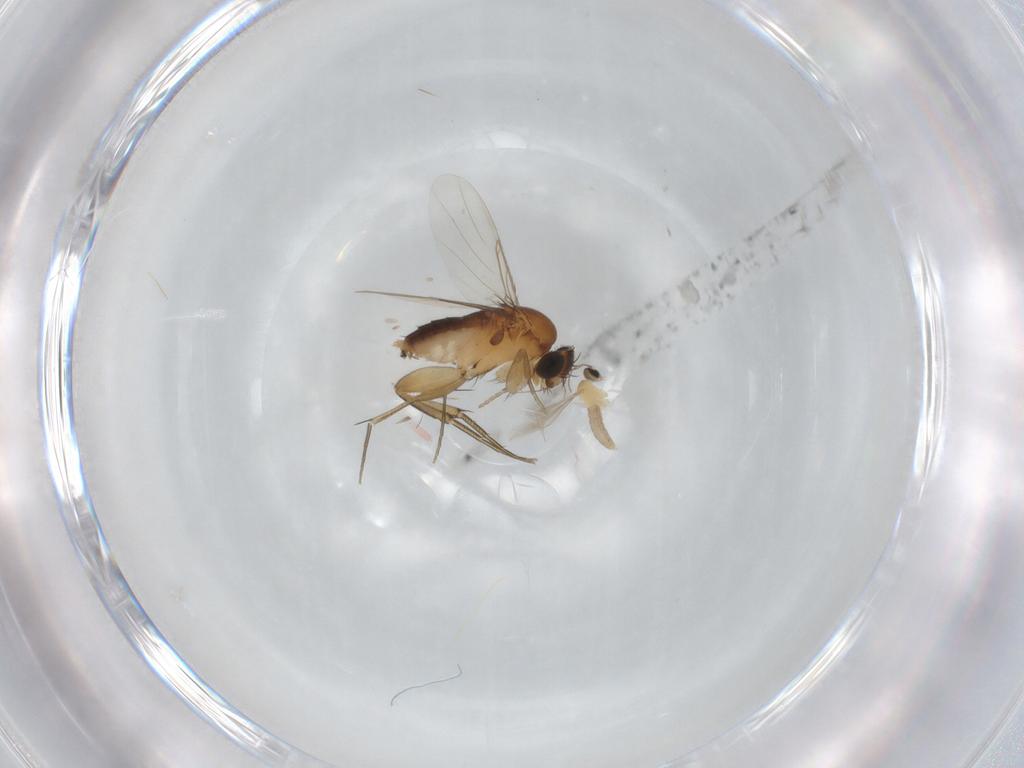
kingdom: Animalia
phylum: Arthropoda
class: Insecta
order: Diptera
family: Phoridae
